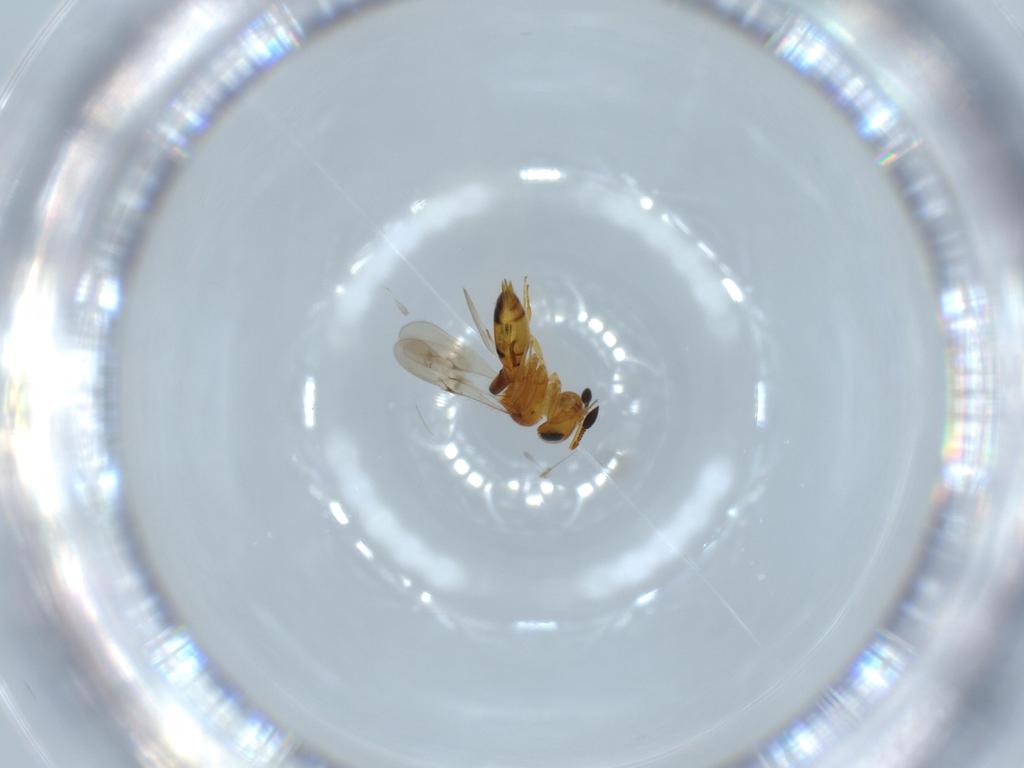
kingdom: Animalia
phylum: Arthropoda
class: Insecta
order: Hymenoptera
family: Scelionidae
